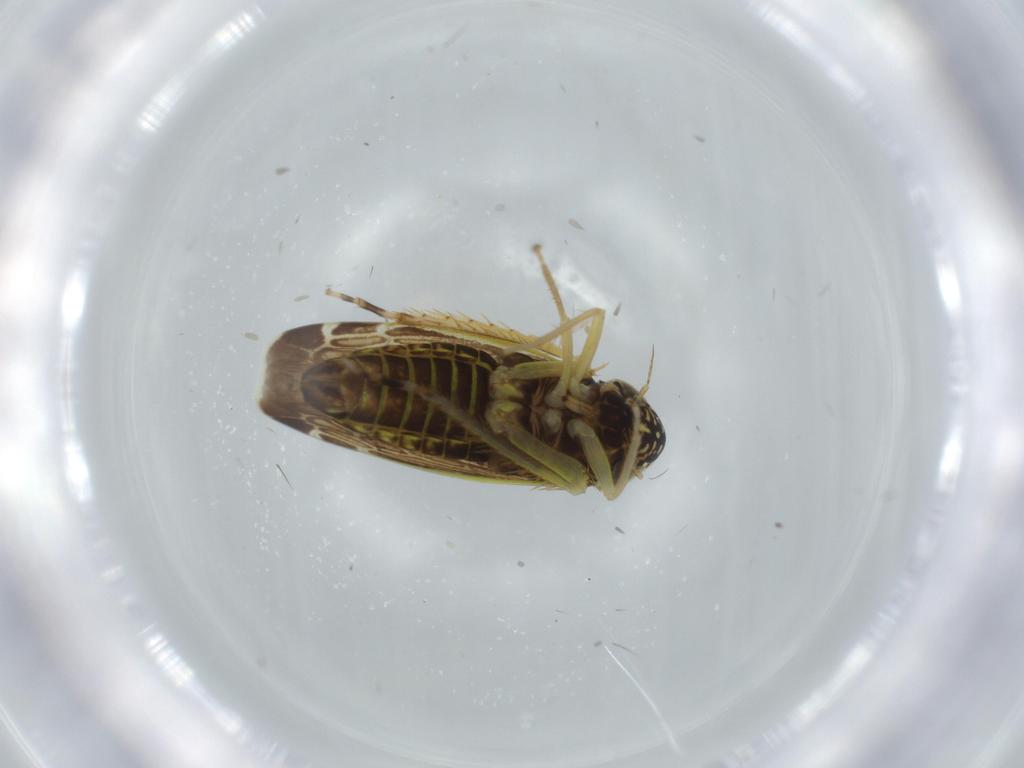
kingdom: Animalia
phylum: Arthropoda
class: Insecta
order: Hemiptera
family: Cicadellidae
